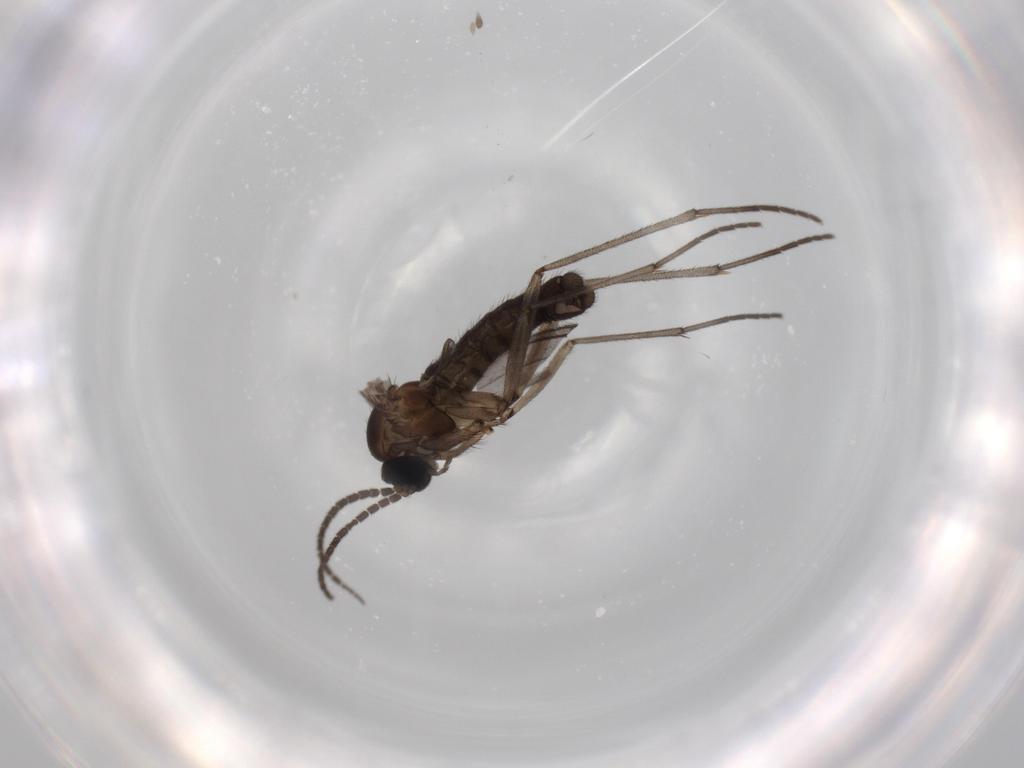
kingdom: Animalia
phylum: Arthropoda
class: Insecta
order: Diptera
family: Sciaridae
